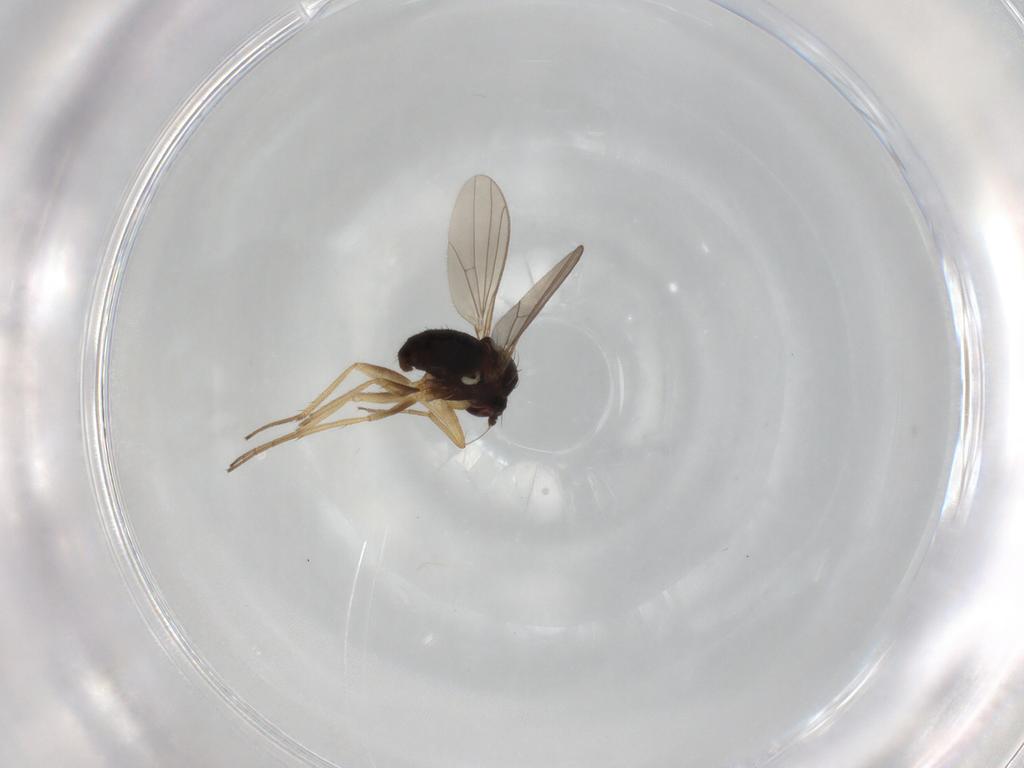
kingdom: Animalia
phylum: Arthropoda
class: Insecta
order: Diptera
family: Dolichopodidae
